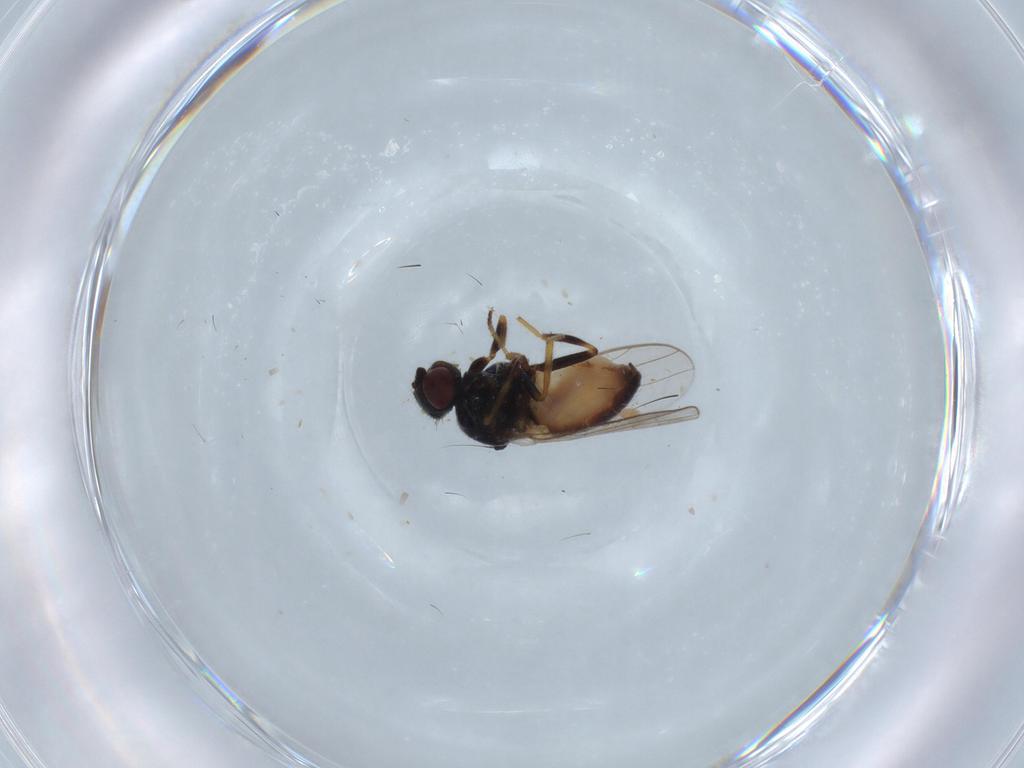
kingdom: Animalia
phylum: Arthropoda
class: Insecta
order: Diptera
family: Chloropidae
